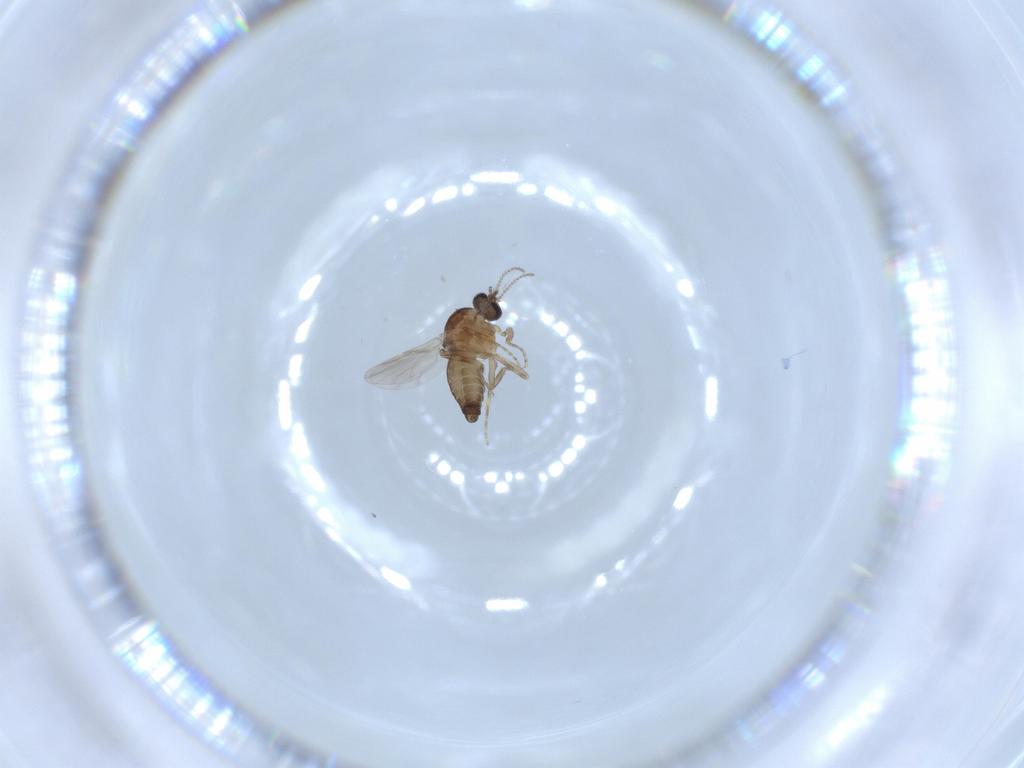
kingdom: Animalia
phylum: Arthropoda
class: Insecta
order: Diptera
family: Ceratopogonidae
